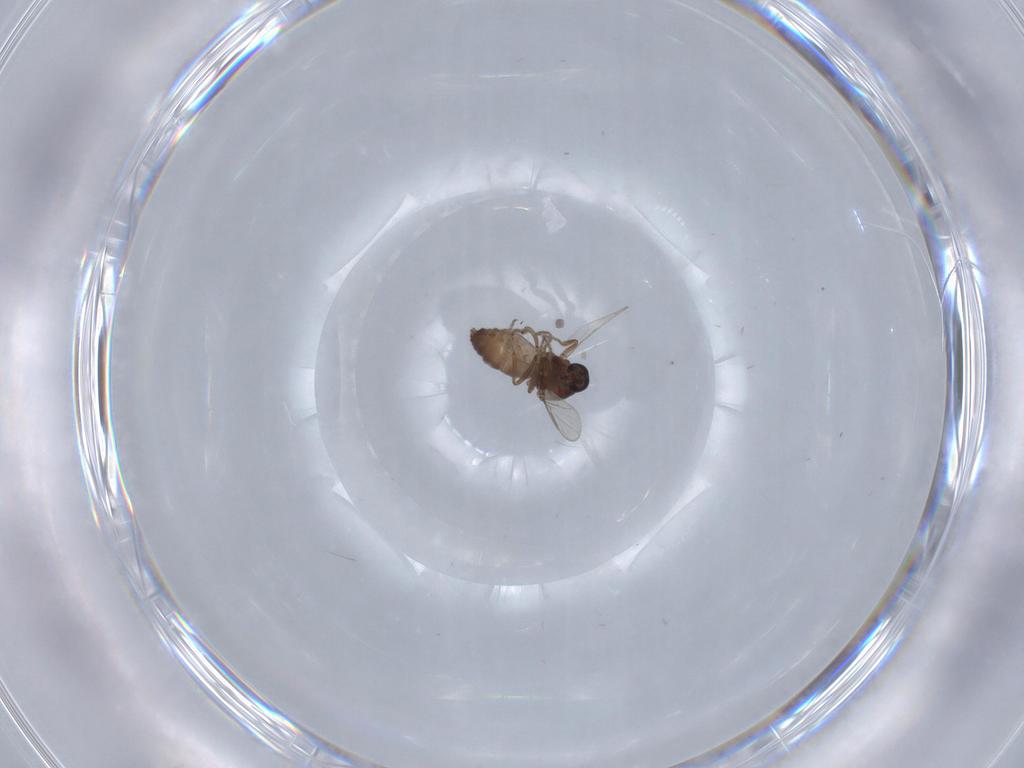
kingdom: Animalia
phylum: Arthropoda
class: Insecta
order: Diptera
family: Ceratopogonidae
